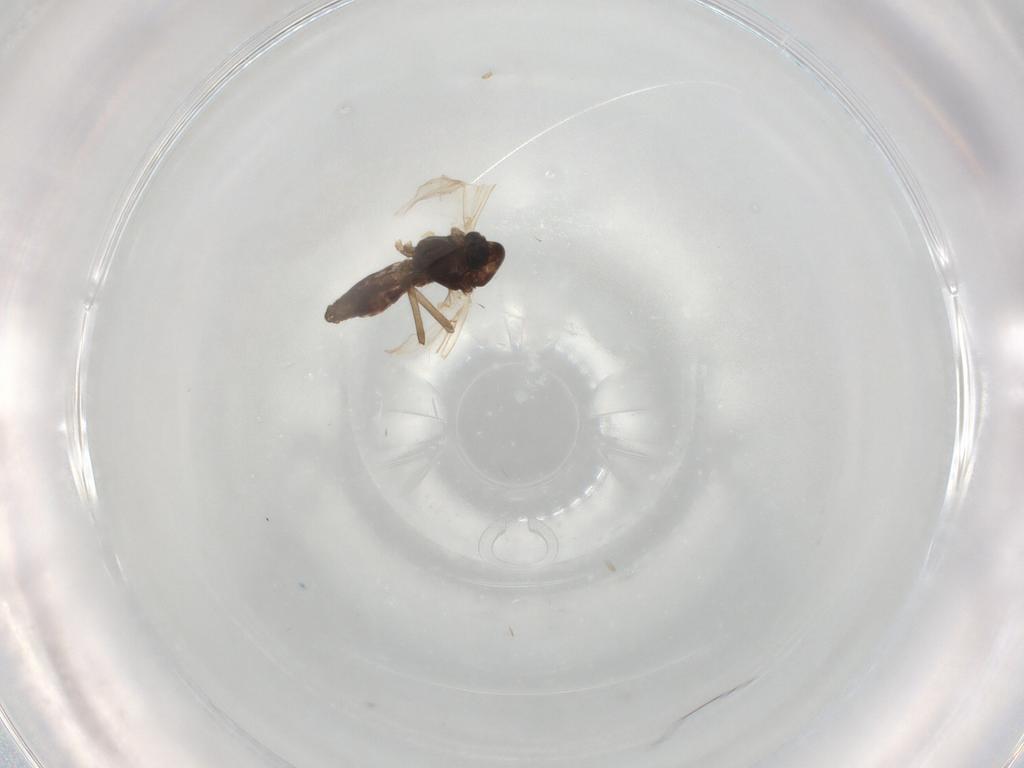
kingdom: Animalia
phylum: Arthropoda
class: Insecta
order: Diptera
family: Chironomidae
